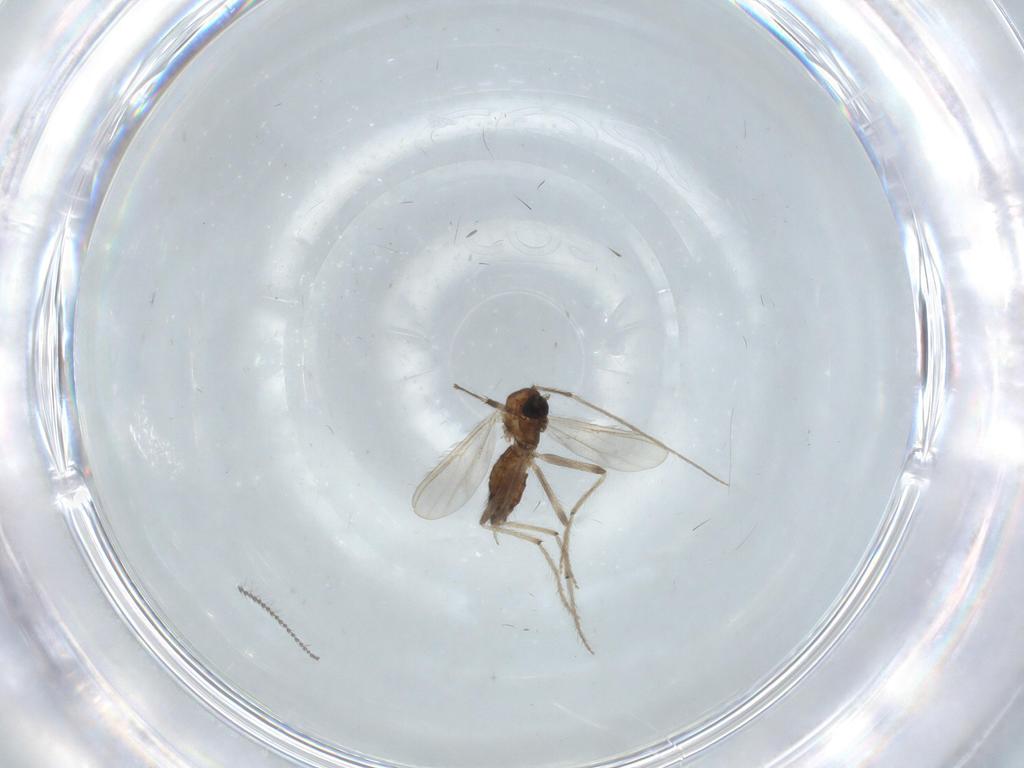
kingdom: Animalia
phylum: Arthropoda
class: Insecta
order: Diptera
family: Chironomidae
